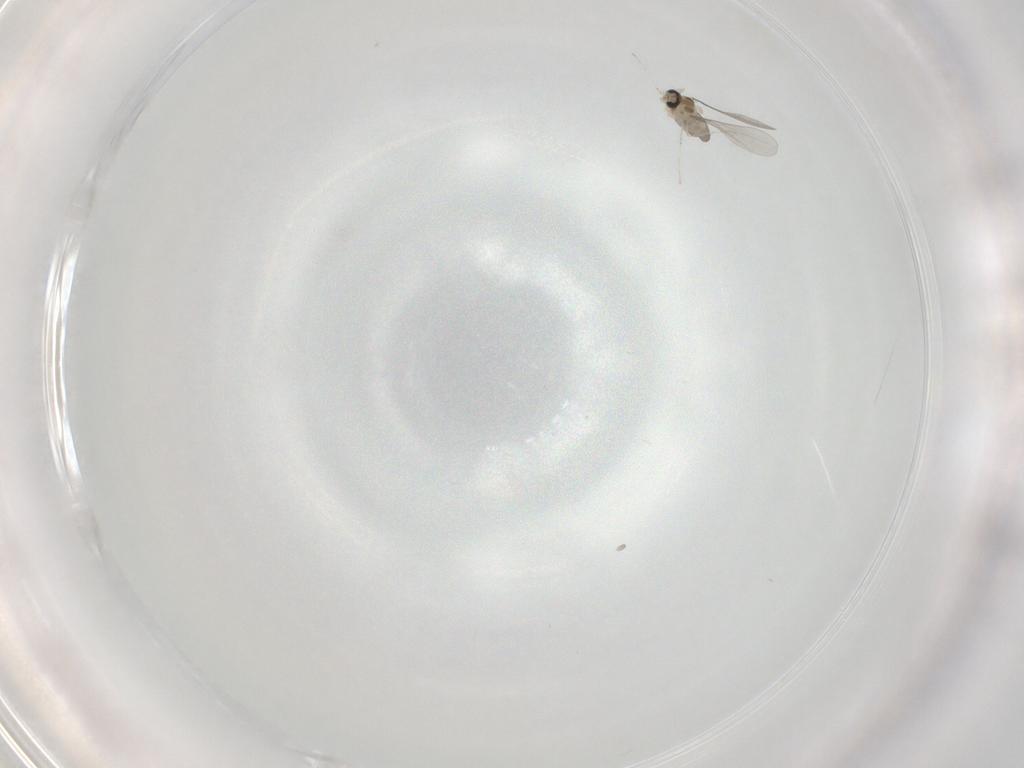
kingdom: Animalia
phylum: Arthropoda
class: Insecta
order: Diptera
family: Cecidomyiidae
